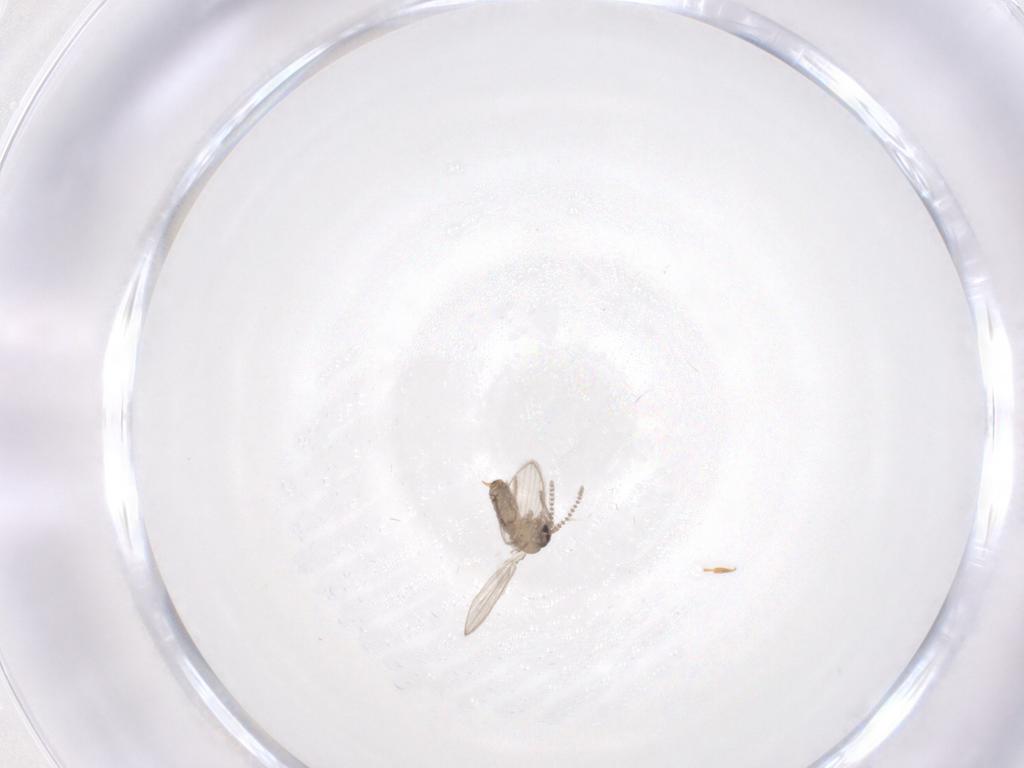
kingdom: Animalia
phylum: Arthropoda
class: Insecta
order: Diptera
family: Psychodidae
